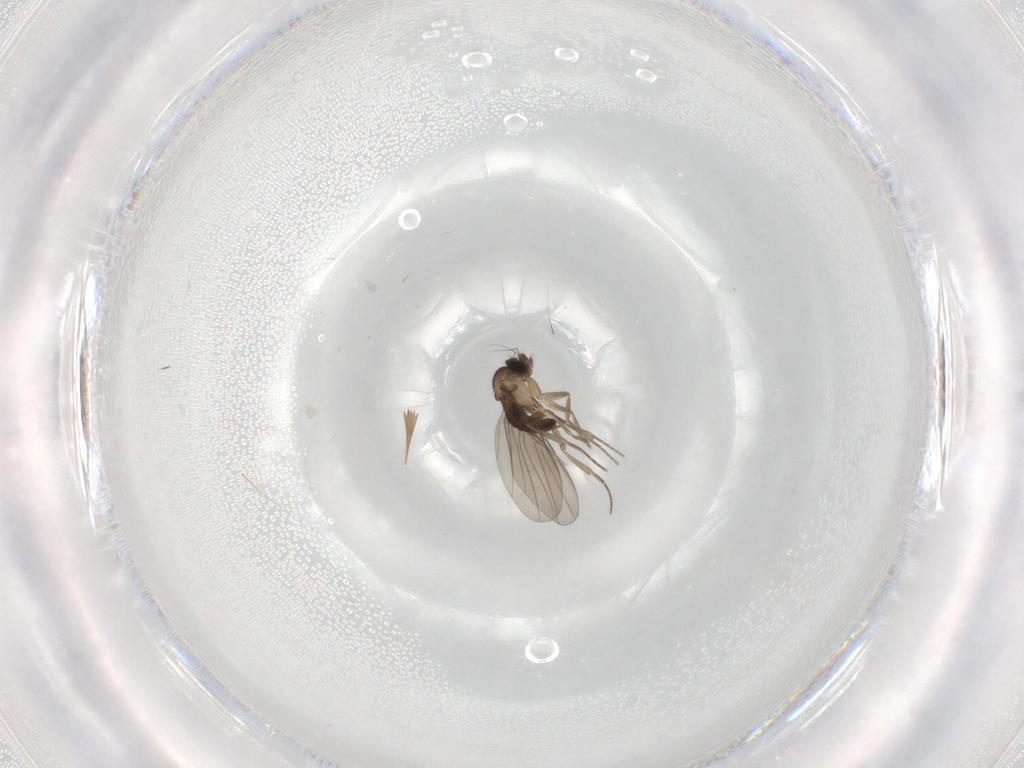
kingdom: Animalia
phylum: Arthropoda
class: Insecta
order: Diptera
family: Phoridae
